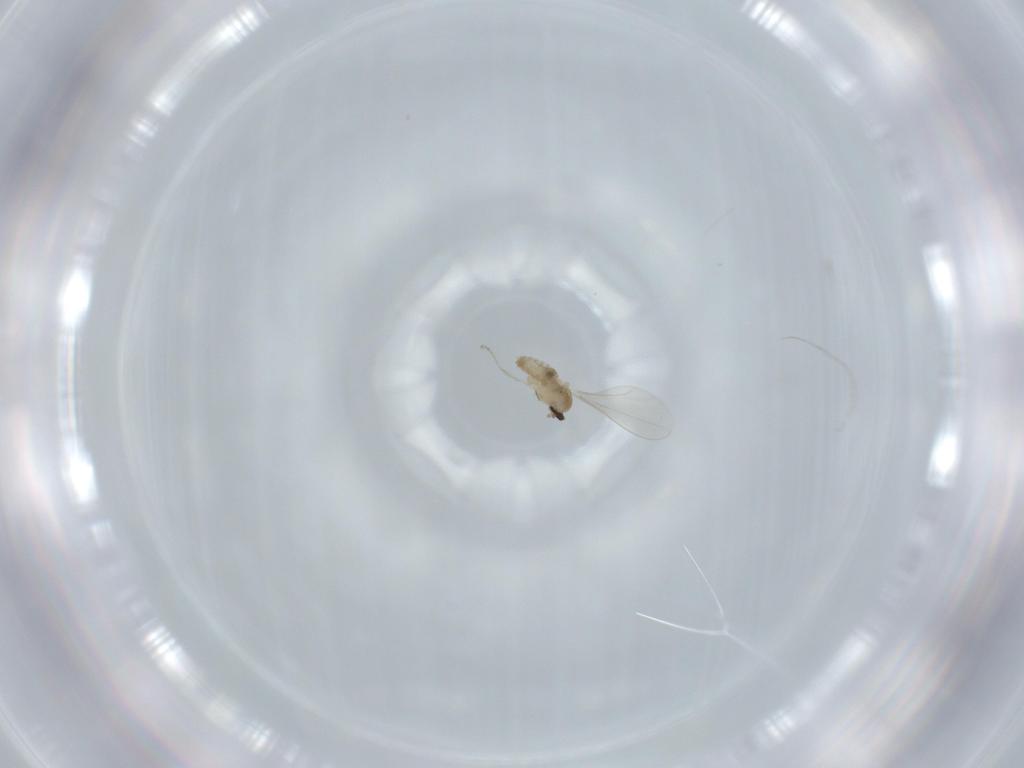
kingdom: Animalia
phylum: Arthropoda
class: Insecta
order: Diptera
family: Cecidomyiidae
